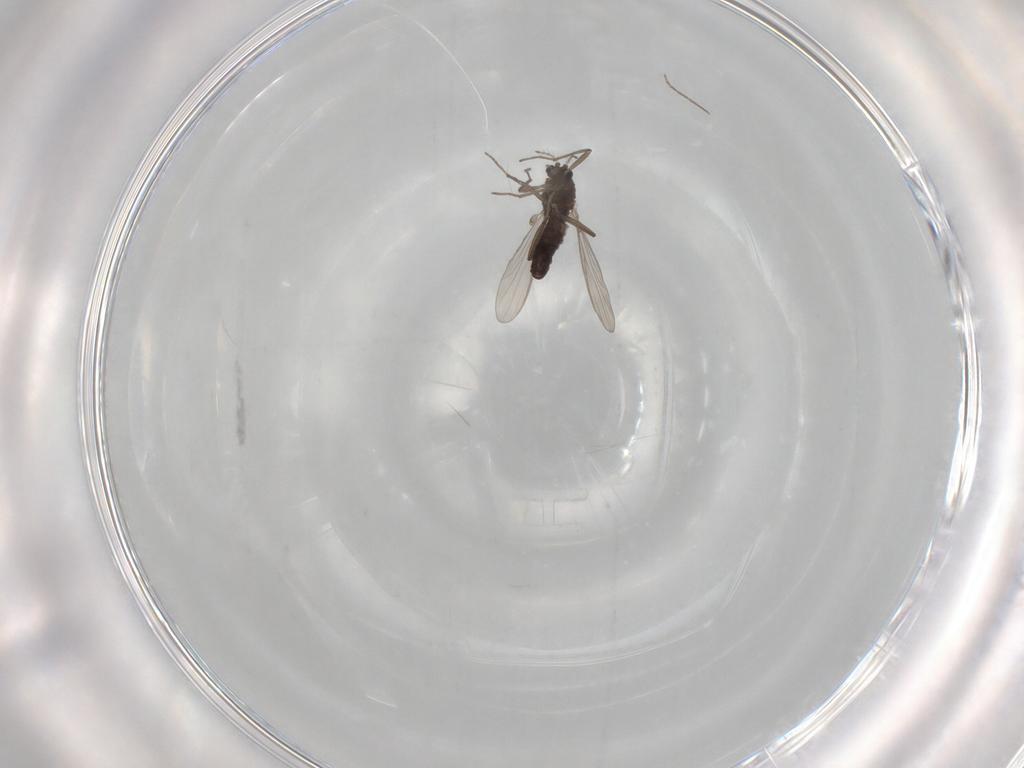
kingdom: Animalia
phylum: Arthropoda
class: Insecta
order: Diptera
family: Chironomidae
